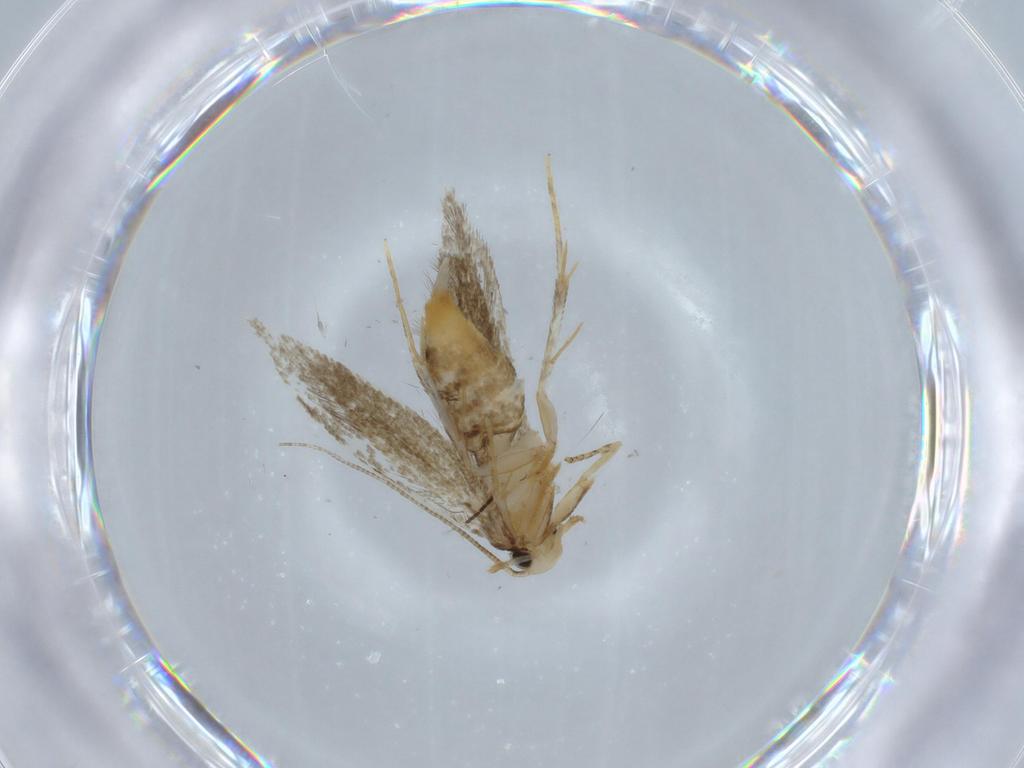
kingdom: Animalia
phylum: Arthropoda
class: Insecta
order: Lepidoptera
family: Tineidae
